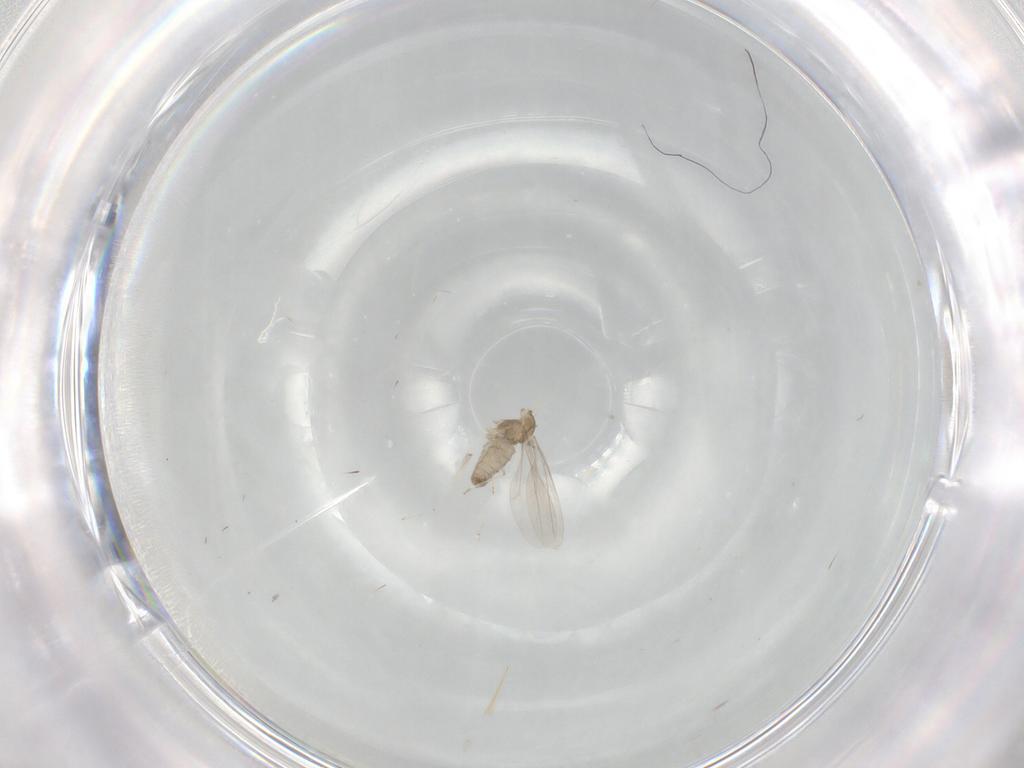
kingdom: Animalia
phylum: Arthropoda
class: Insecta
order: Diptera
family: Cecidomyiidae
